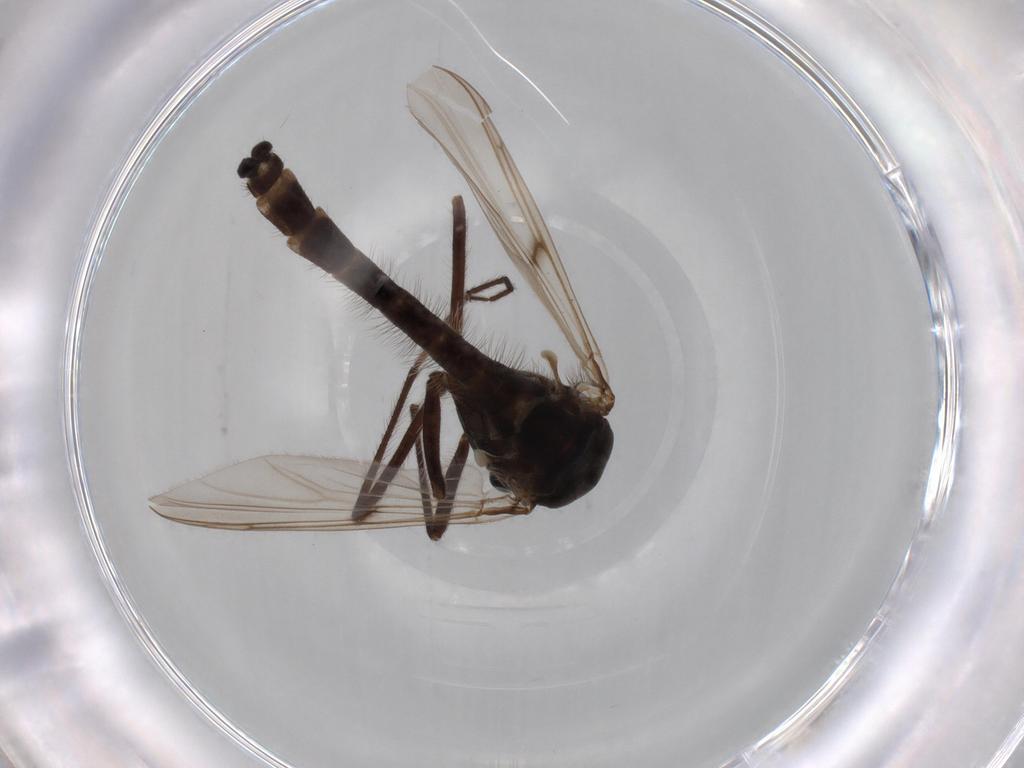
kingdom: Animalia
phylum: Arthropoda
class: Insecta
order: Diptera
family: Chironomidae
